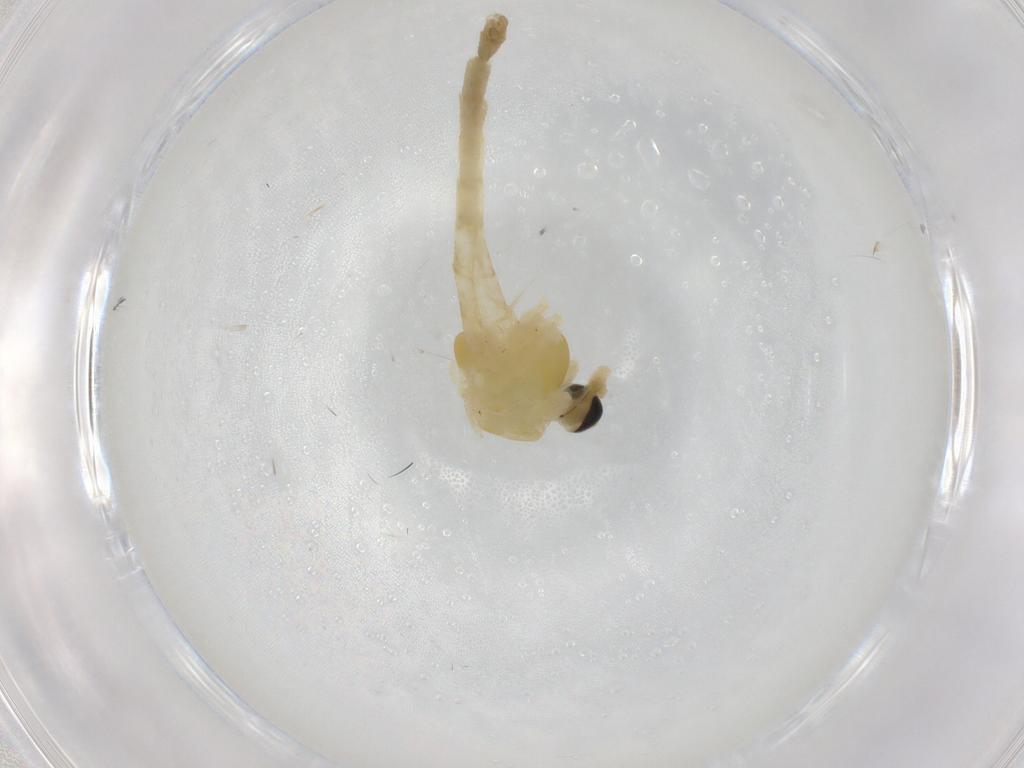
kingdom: Animalia
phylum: Arthropoda
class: Insecta
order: Diptera
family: Chironomidae
